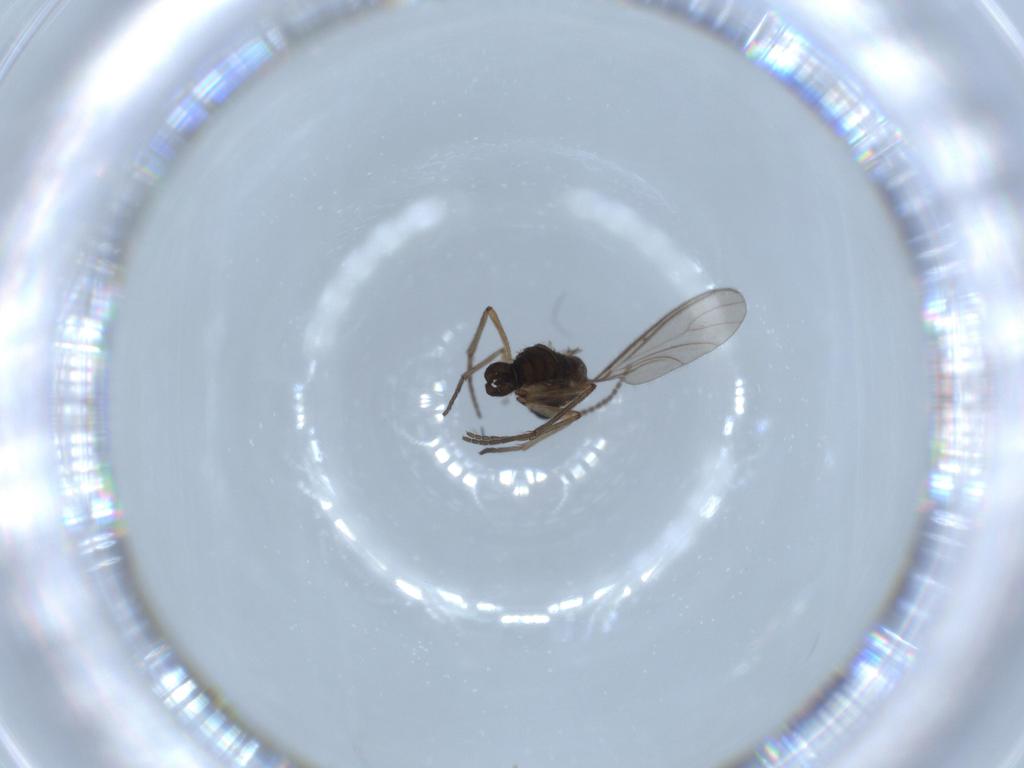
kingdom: Animalia
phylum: Arthropoda
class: Insecta
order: Diptera
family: Sciaridae
